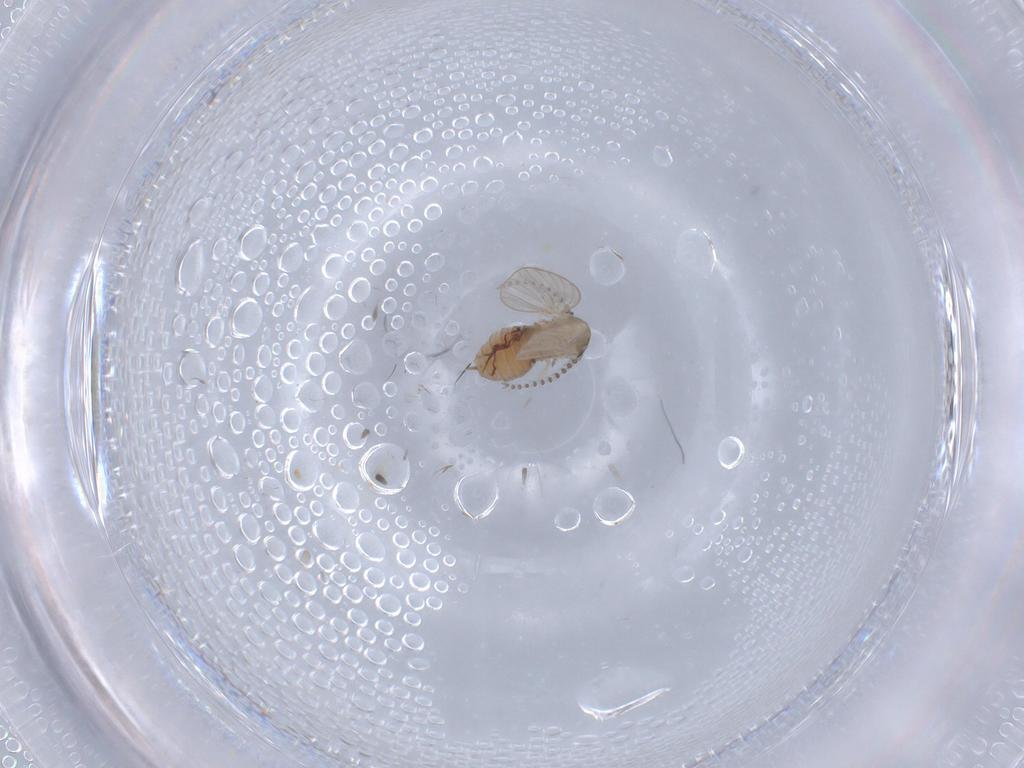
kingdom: Animalia
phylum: Arthropoda
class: Insecta
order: Diptera
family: Psychodidae
